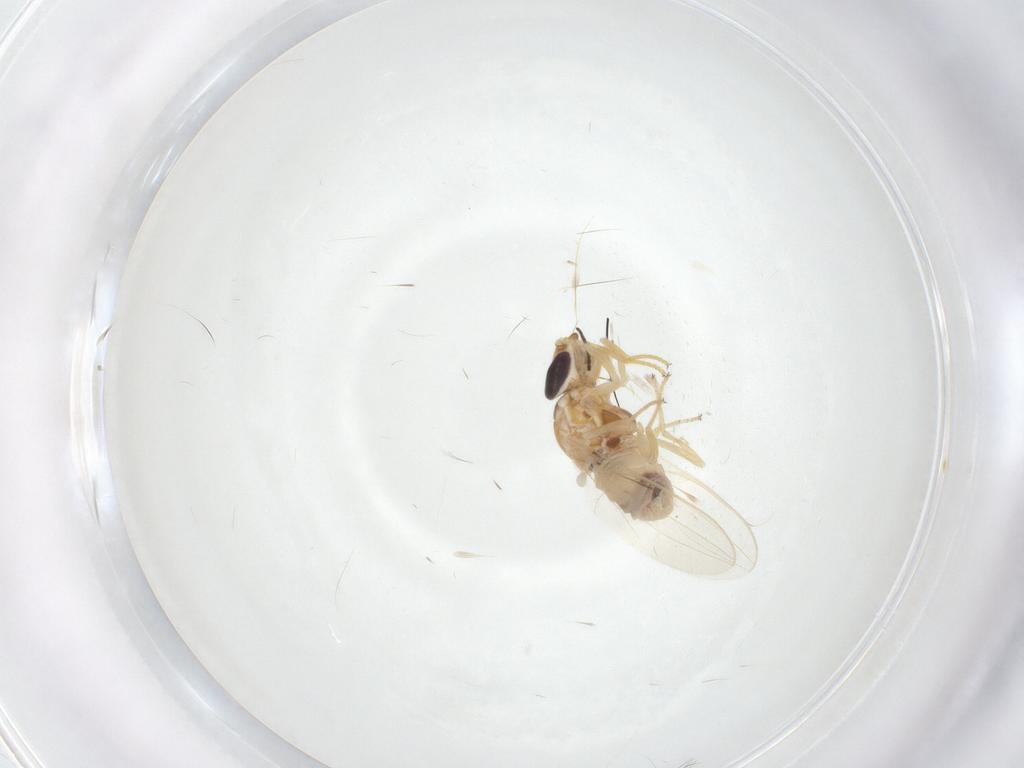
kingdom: Animalia
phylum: Arthropoda
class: Insecta
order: Diptera
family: Chloropidae
